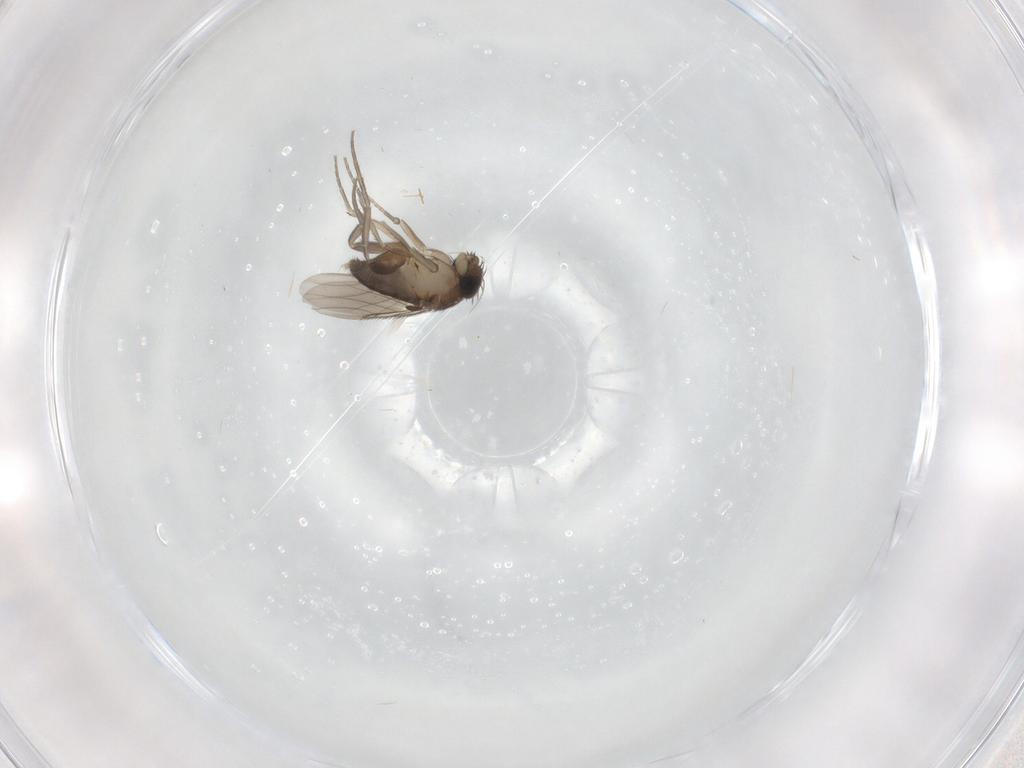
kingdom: Animalia
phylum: Arthropoda
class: Insecta
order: Diptera
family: Phoridae
